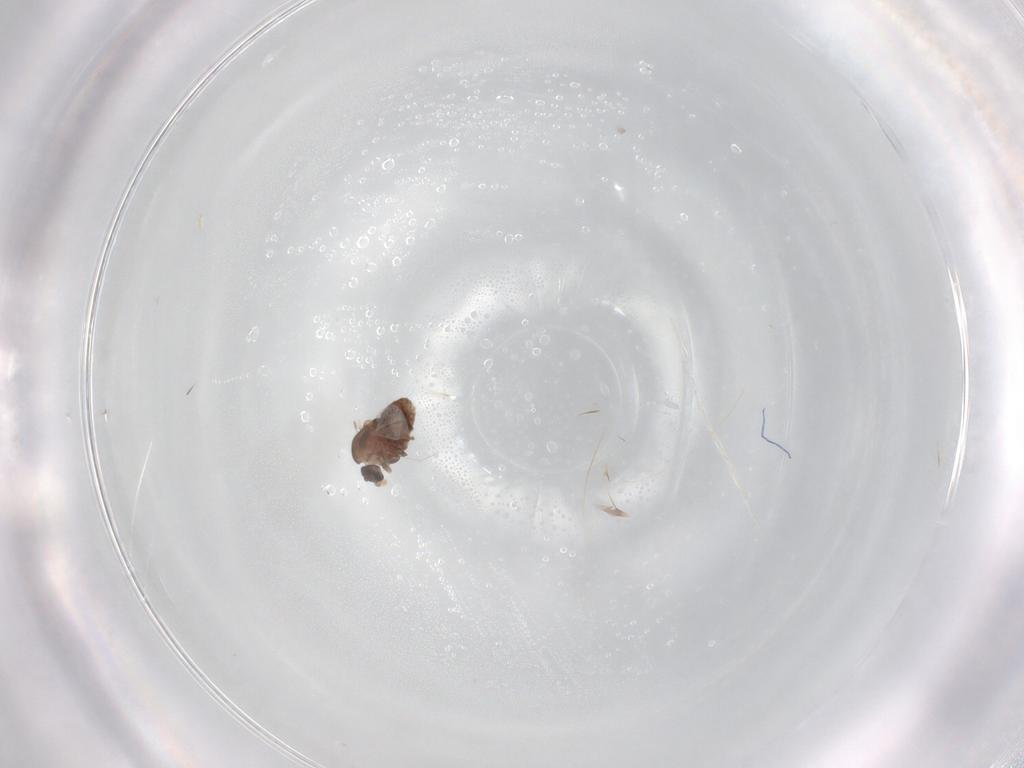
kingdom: Animalia
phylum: Arthropoda
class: Insecta
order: Diptera
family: Chironomidae
